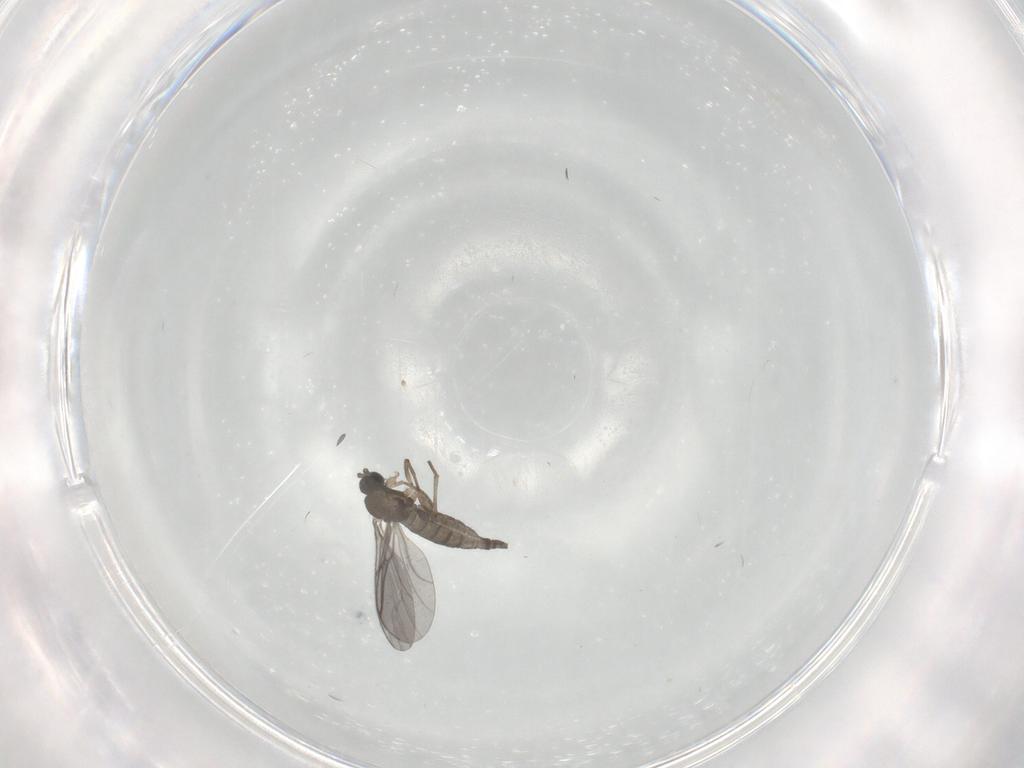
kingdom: Animalia
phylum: Arthropoda
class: Insecta
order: Diptera
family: Sciaridae
